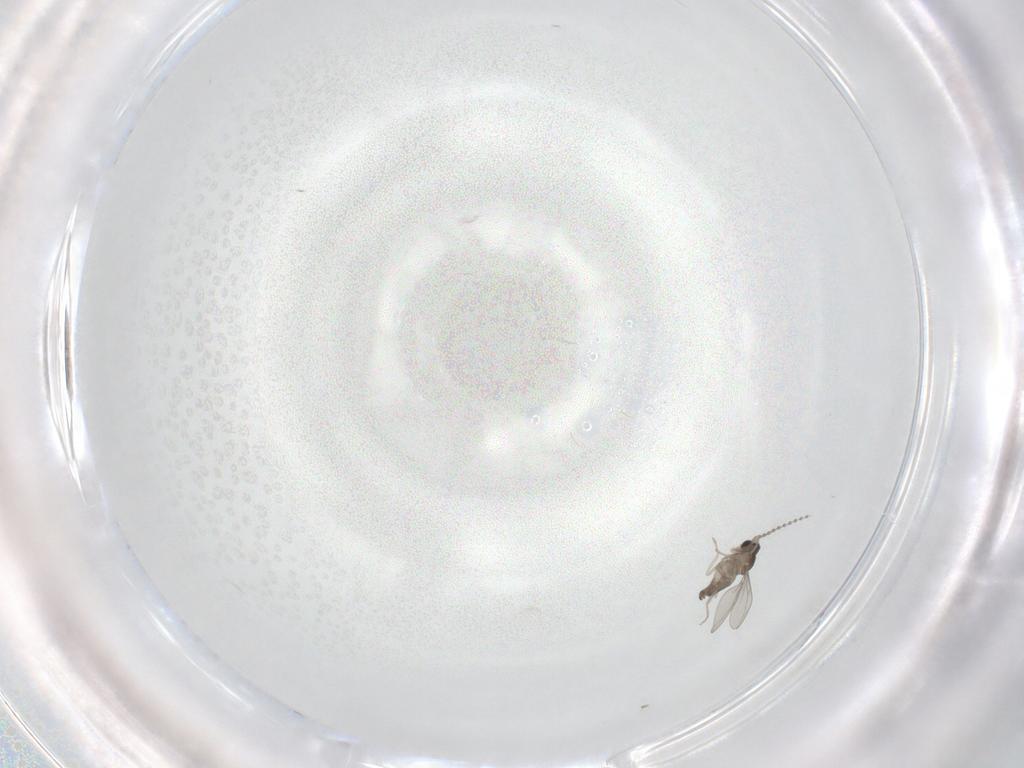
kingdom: Animalia
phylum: Arthropoda
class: Insecta
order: Diptera
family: Cecidomyiidae
